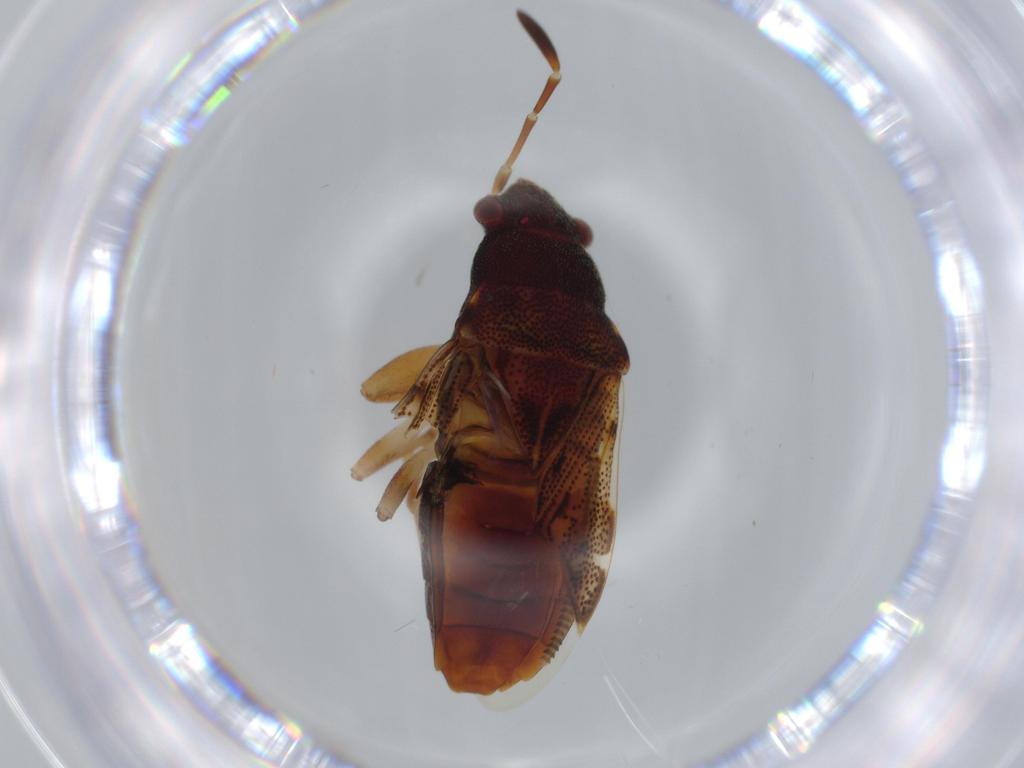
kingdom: Animalia
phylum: Arthropoda
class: Insecta
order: Hemiptera
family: Rhyparochromidae
